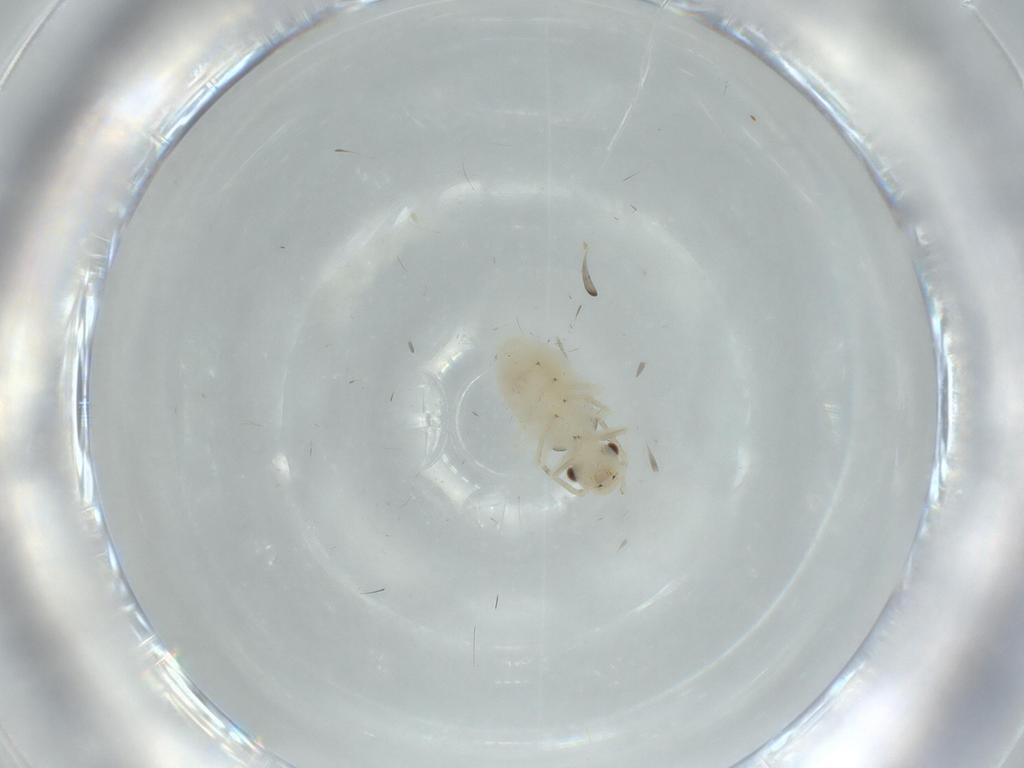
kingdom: Animalia
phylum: Arthropoda
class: Insecta
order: Psocodea
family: Caeciliusidae
